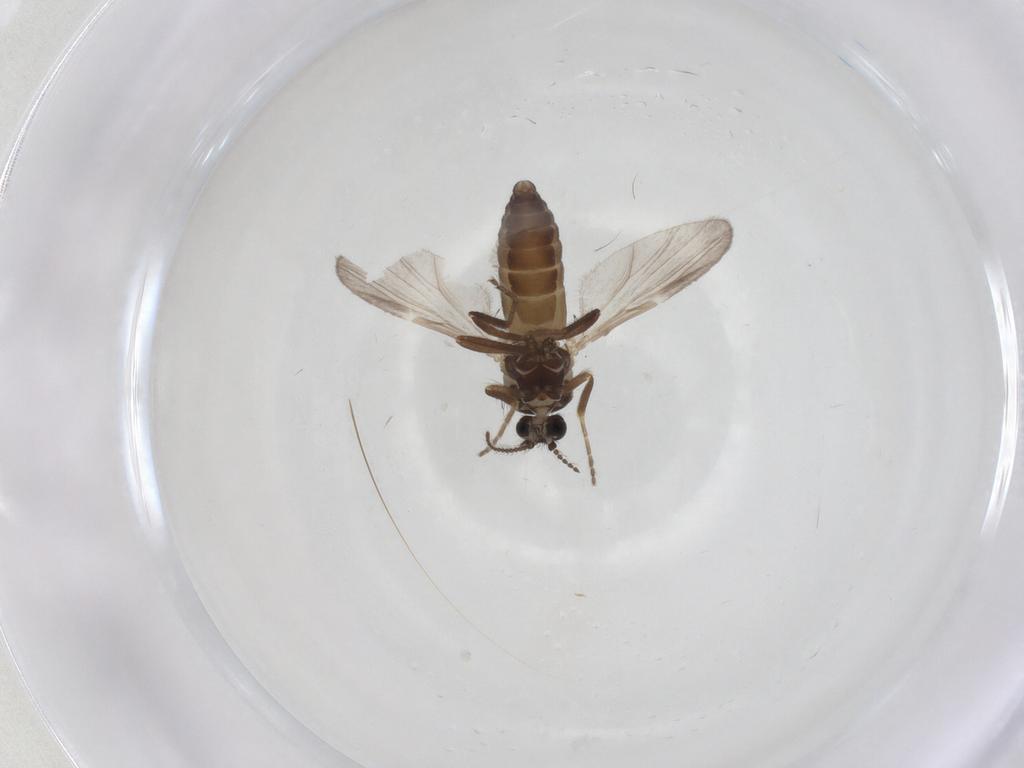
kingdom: Animalia
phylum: Arthropoda
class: Insecta
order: Diptera
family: Ceratopogonidae
